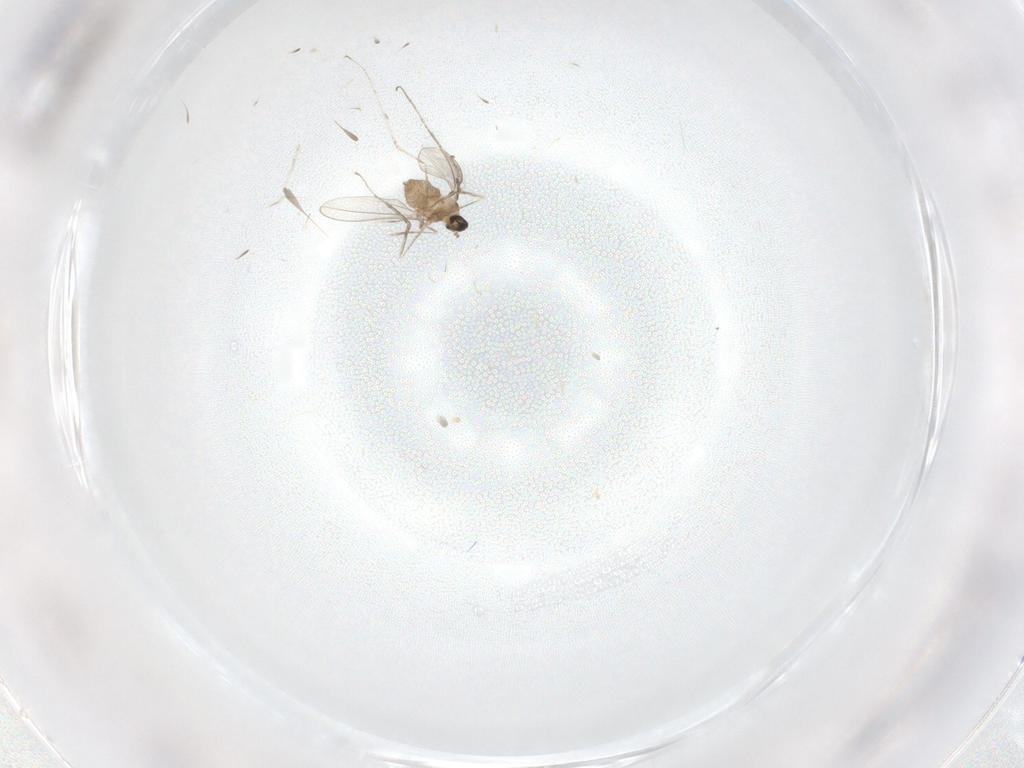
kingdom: Animalia
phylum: Arthropoda
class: Insecta
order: Diptera
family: Cecidomyiidae
